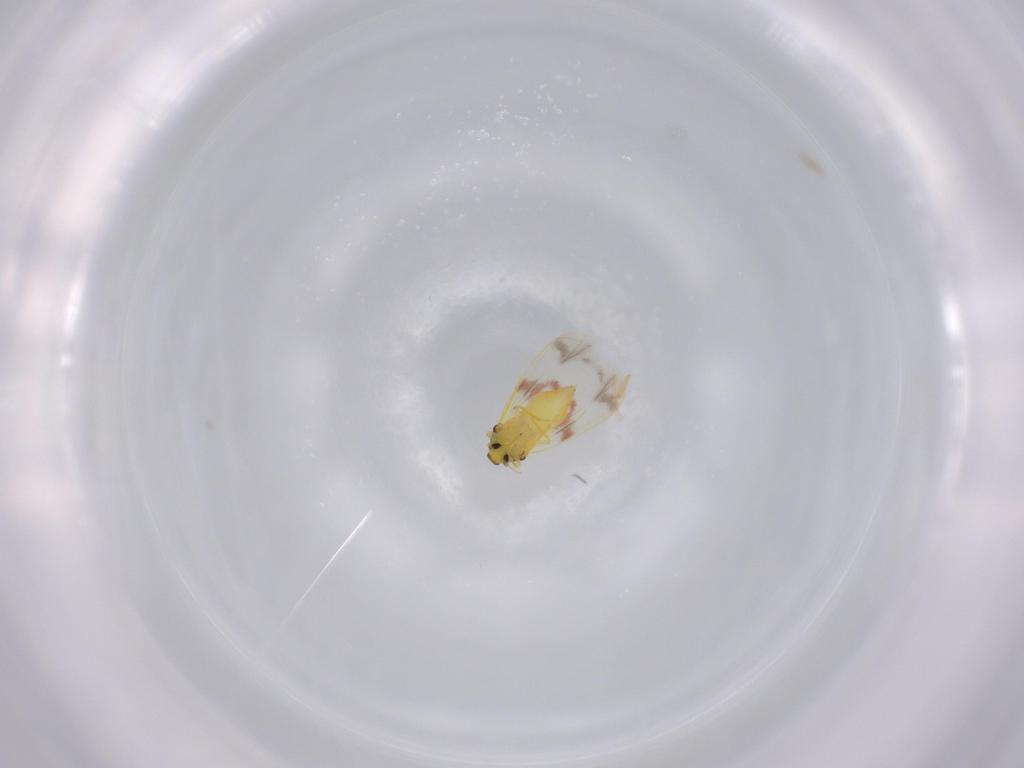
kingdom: Animalia
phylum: Arthropoda
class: Insecta
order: Hemiptera
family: Aleyrodidae
